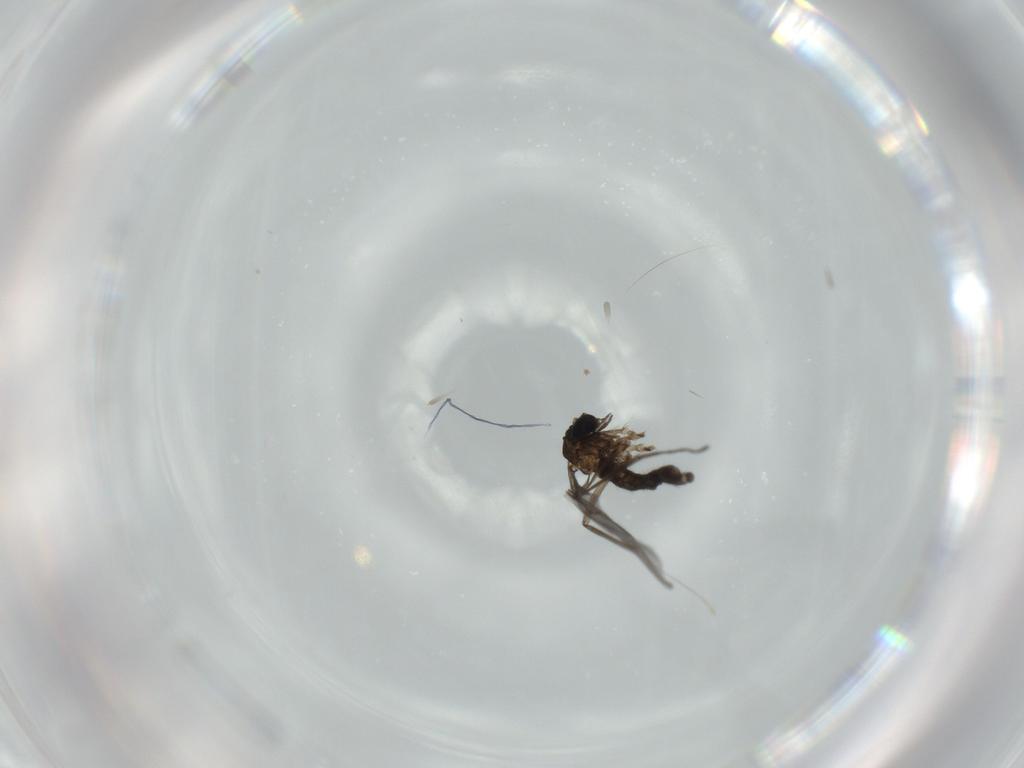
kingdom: Animalia
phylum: Arthropoda
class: Insecta
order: Diptera
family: Sciaridae
